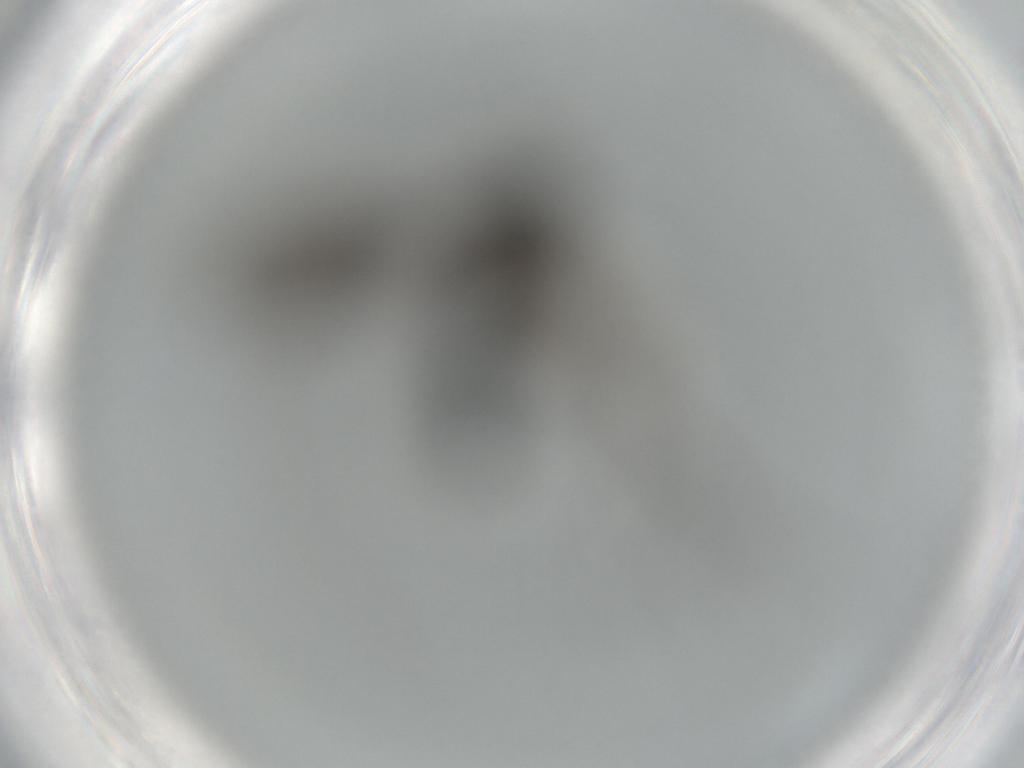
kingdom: Animalia
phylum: Arthropoda
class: Insecta
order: Diptera
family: Sciaridae
